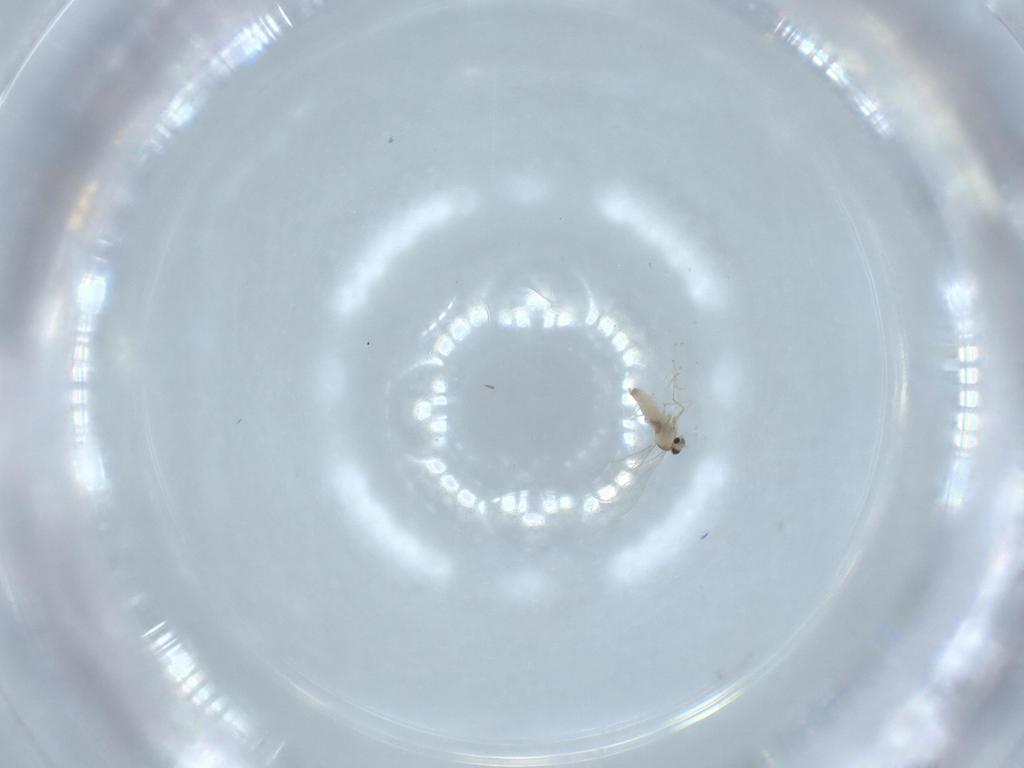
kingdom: Animalia
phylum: Arthropoda
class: Insecta
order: Diptera
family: Cecidomyiidae
